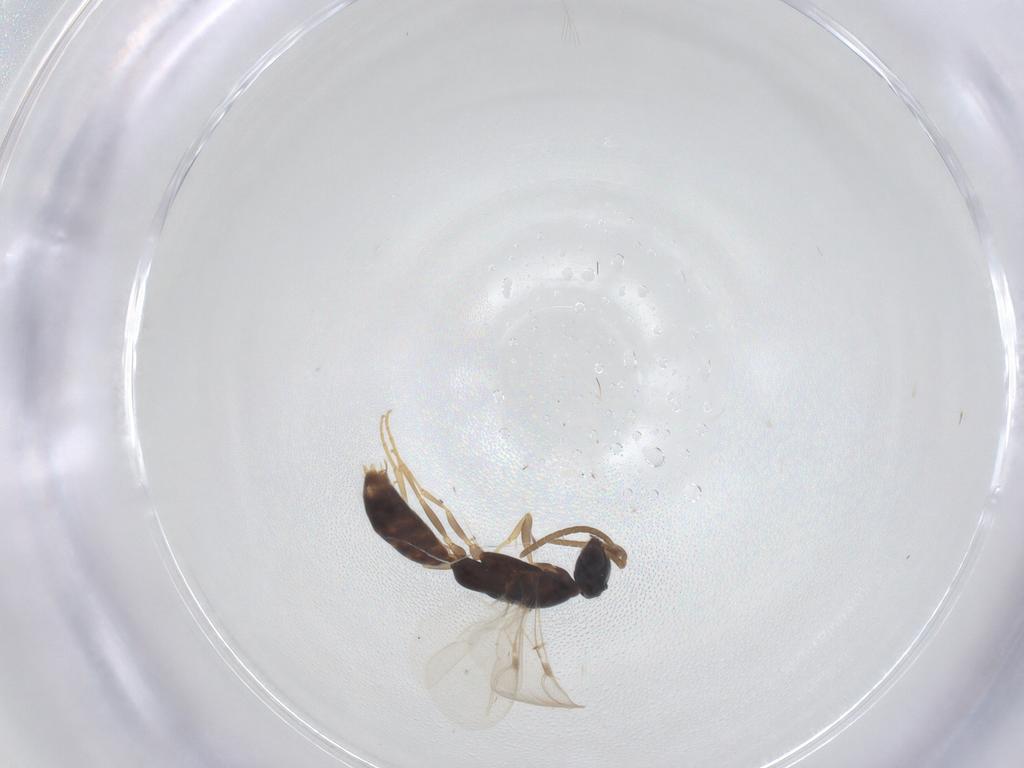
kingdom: Animalia
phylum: Arthropoda
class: Insecta
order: Hymenoptera
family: Bethylidae
